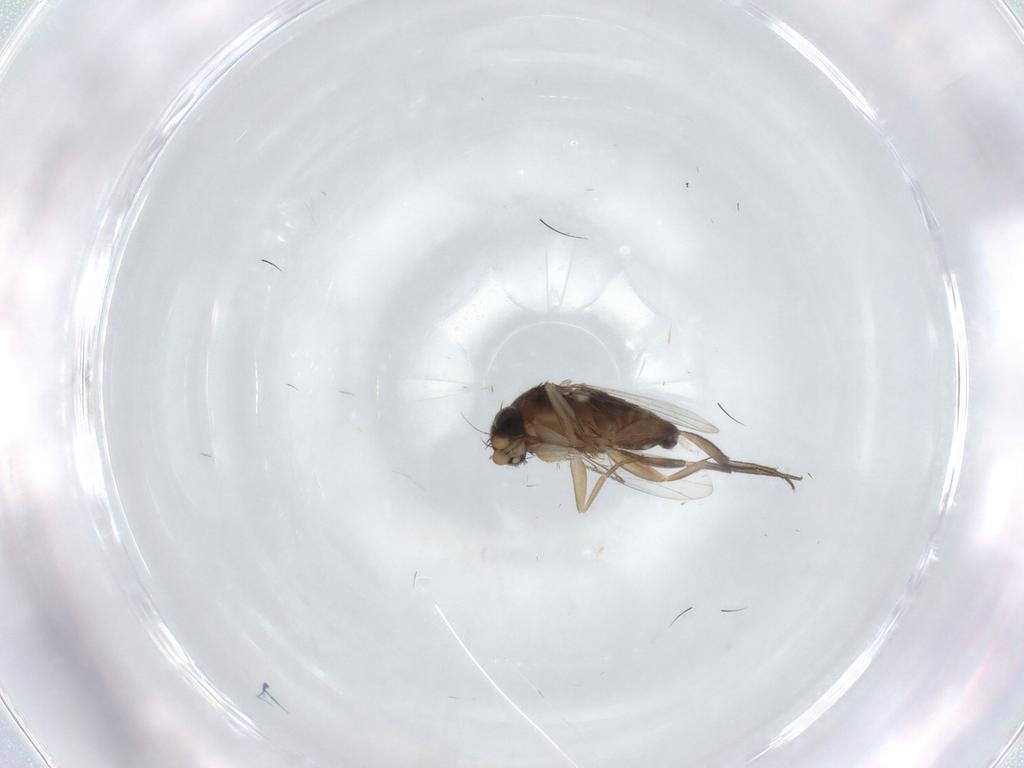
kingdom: Animalia
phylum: Arthropoda
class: Insecta
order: Diptera
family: Phoridae
